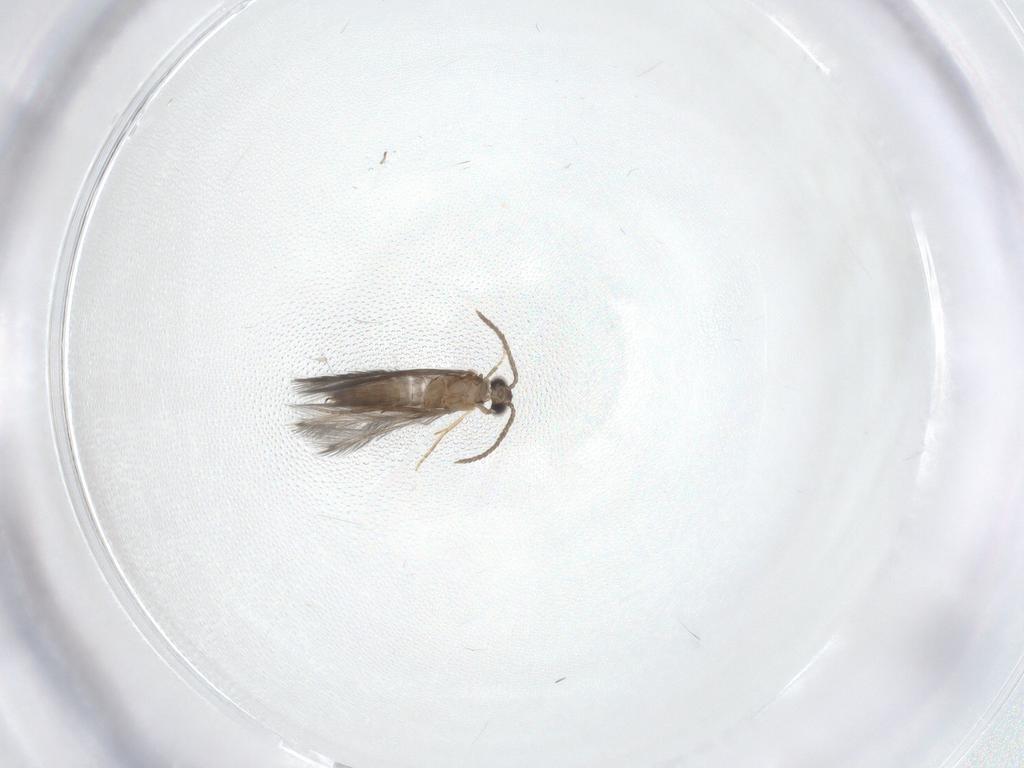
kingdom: Animalia
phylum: Arthropoda
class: Insecta
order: Trichoptera
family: Hydroptilidae
